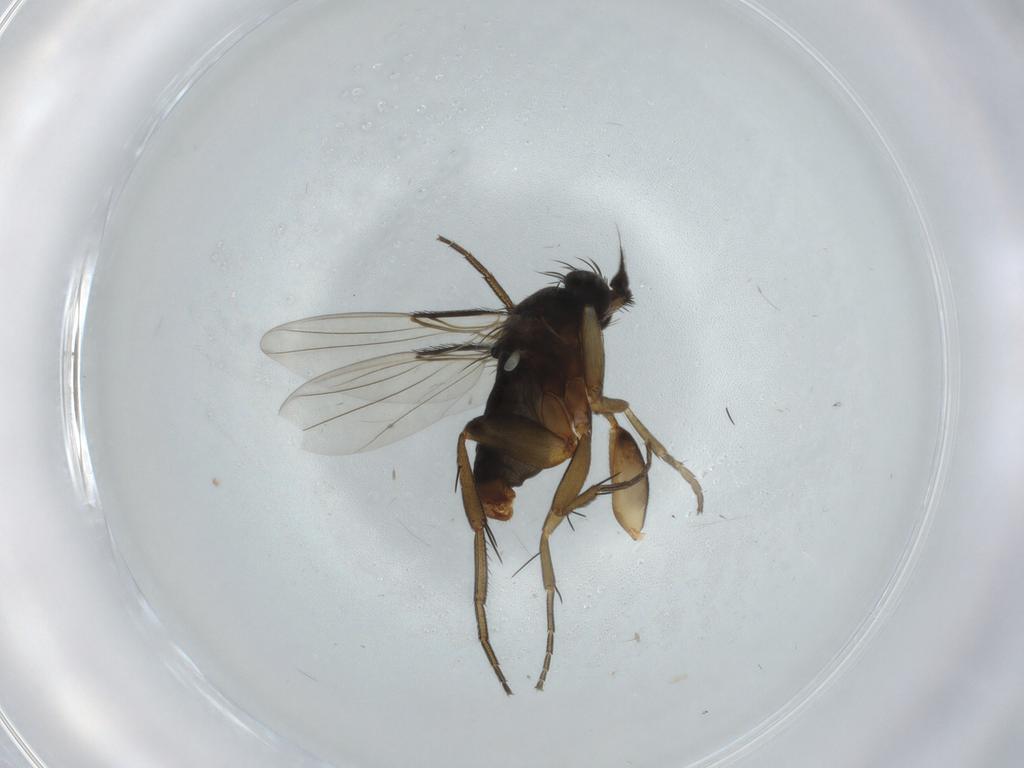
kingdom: Animalia
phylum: Arthropoda
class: Insecta
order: Diptera
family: Phoridae
